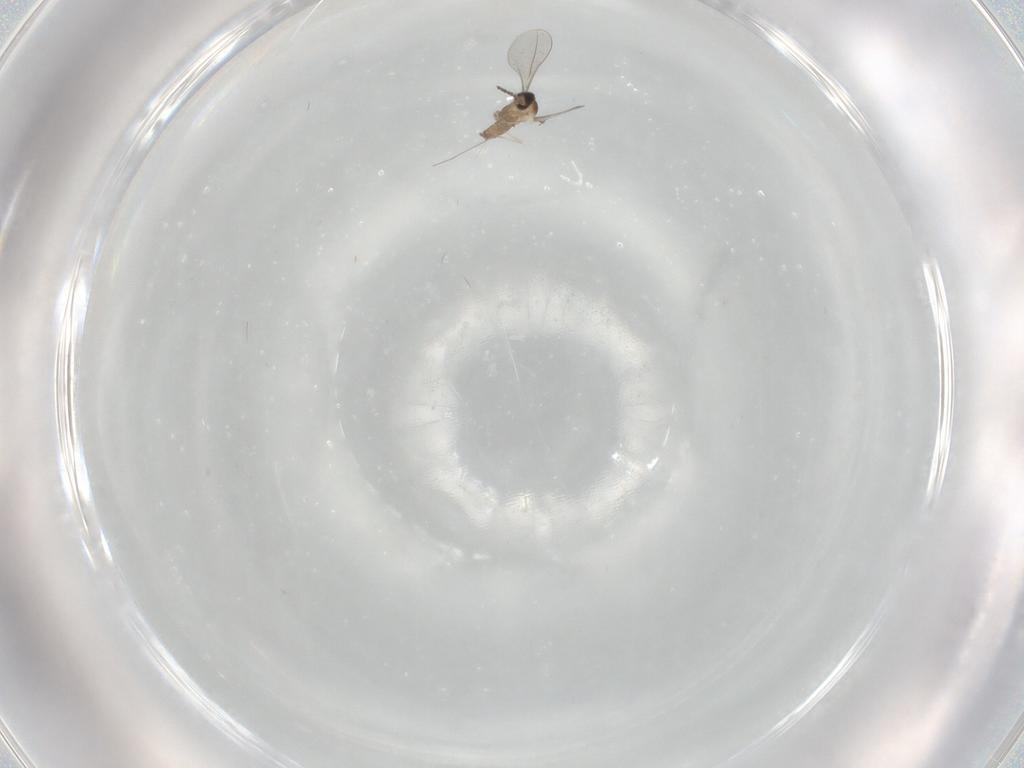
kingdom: Animalia
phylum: Arthropoda
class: Insecta
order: Diptera
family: Cecidomyiidae
